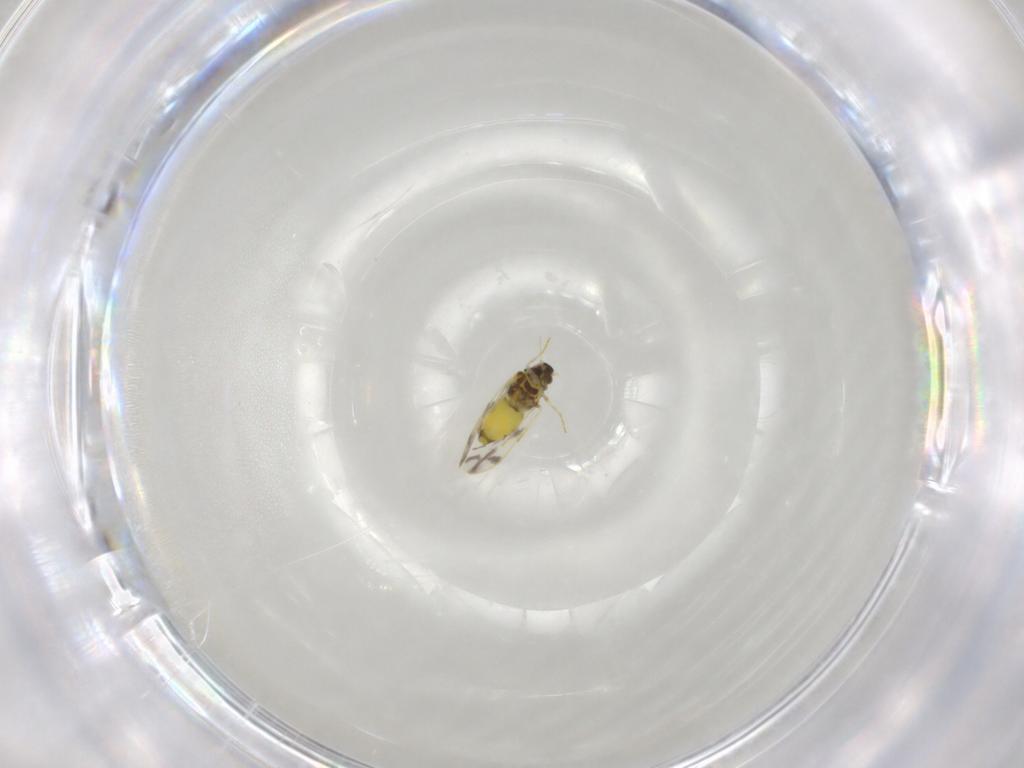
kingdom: Animalia
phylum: Arthropoda
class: Insecta
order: Hemiptera
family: Aleyrodidae
